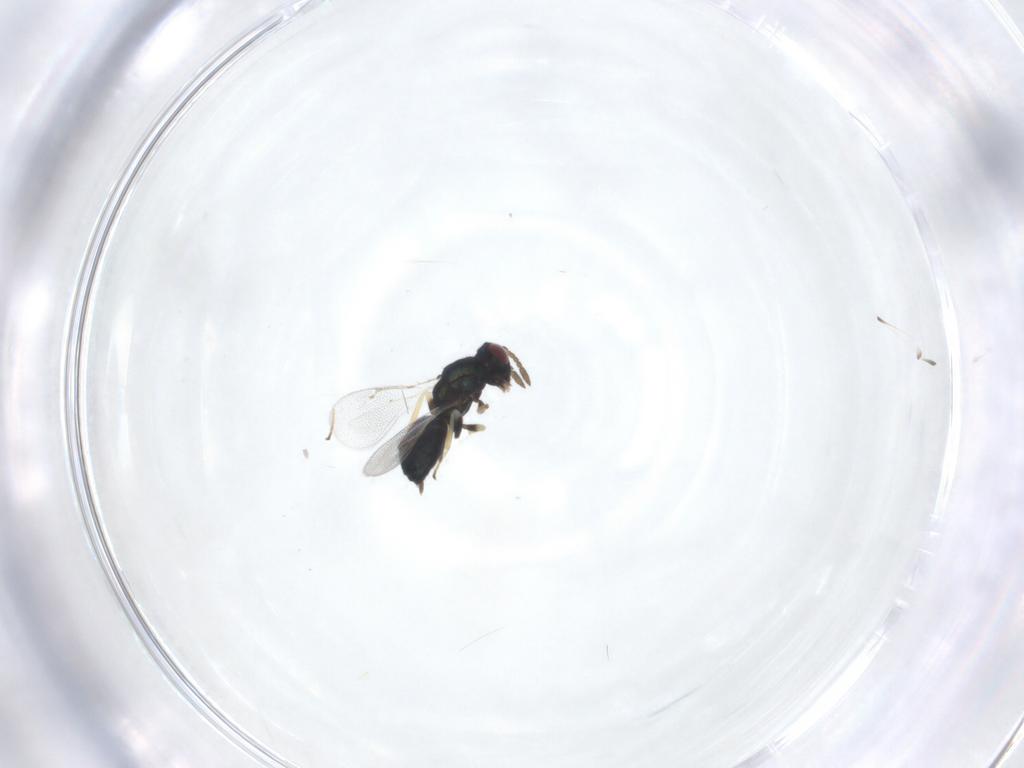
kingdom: Animalia
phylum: Arthropoda
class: Insecta
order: Hymenoptera
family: Eulophidae
